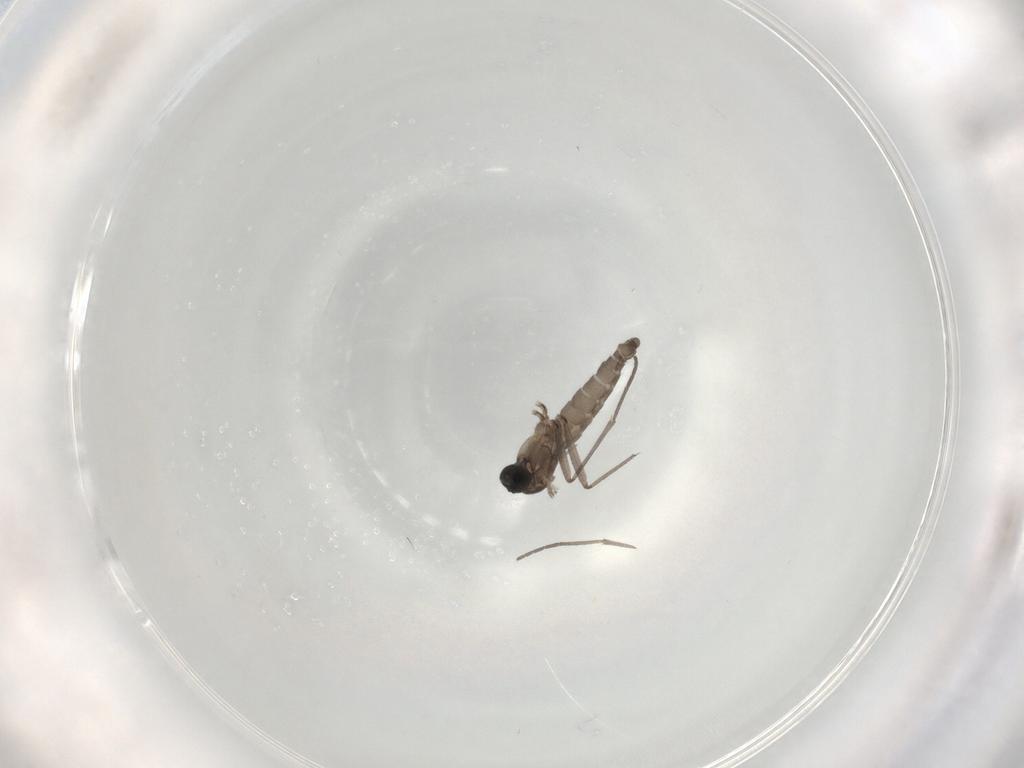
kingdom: Animalia
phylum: Arthropoda
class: Insecta
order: Diptera
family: Sciaridae
